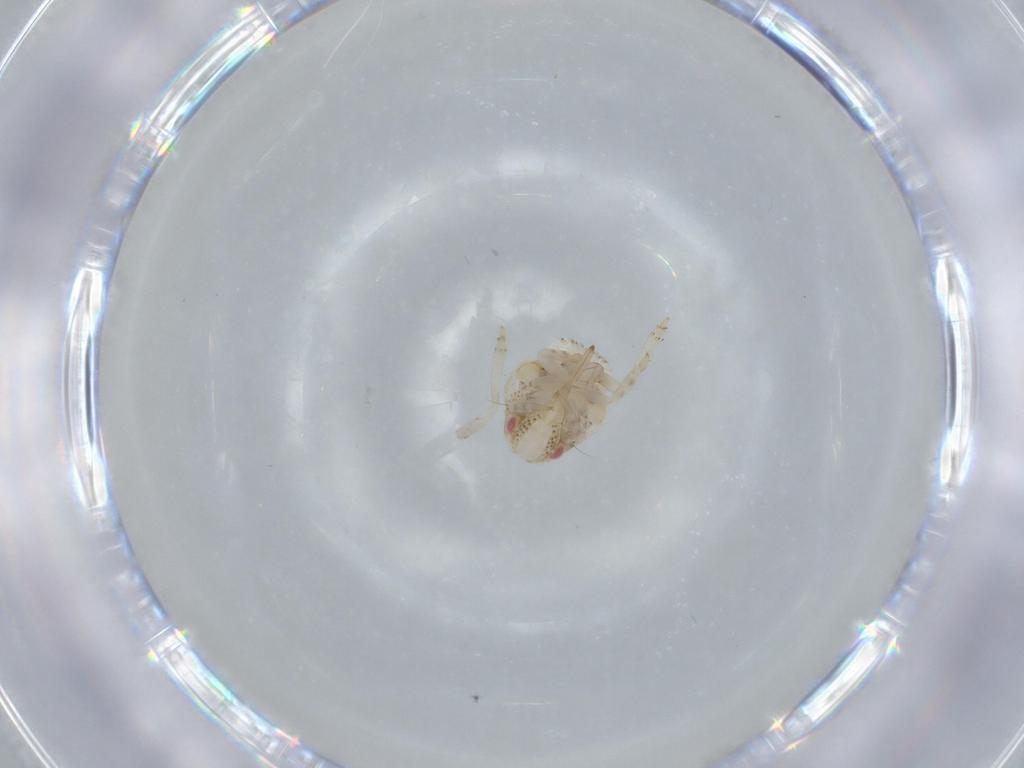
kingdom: Animalia
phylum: Arthropoda
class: Insecta
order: Hemiptera
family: Acanaloniidae
